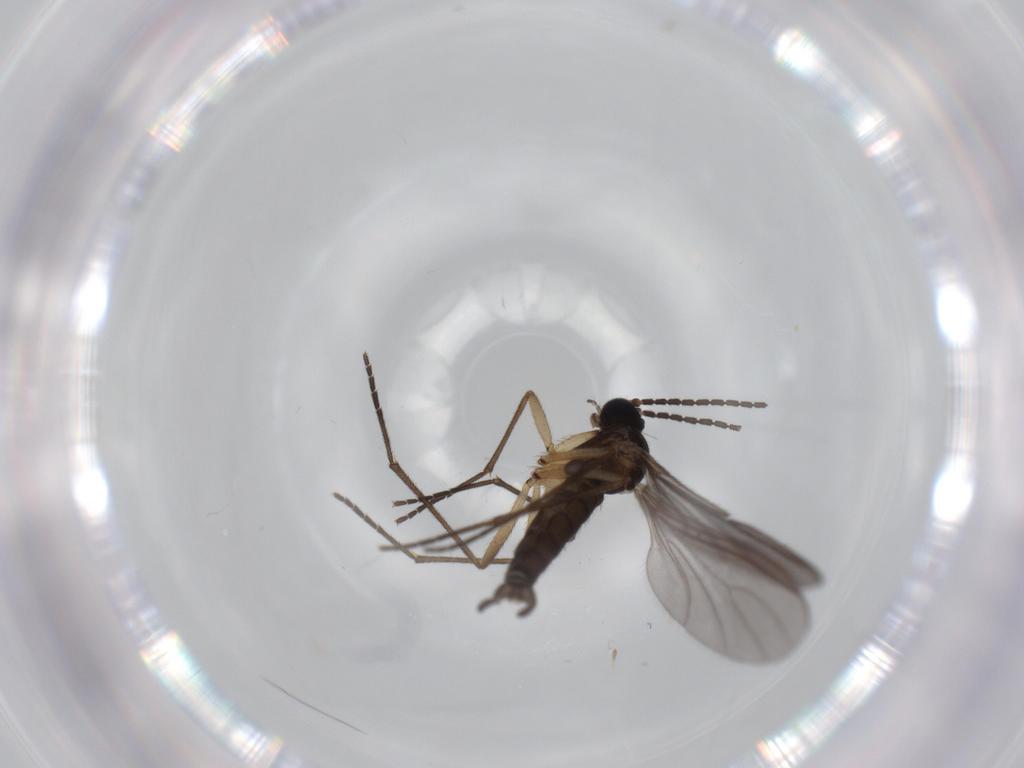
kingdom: Animalia
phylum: Arthropoda
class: Insecta
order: Diptera
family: Sciaridae
